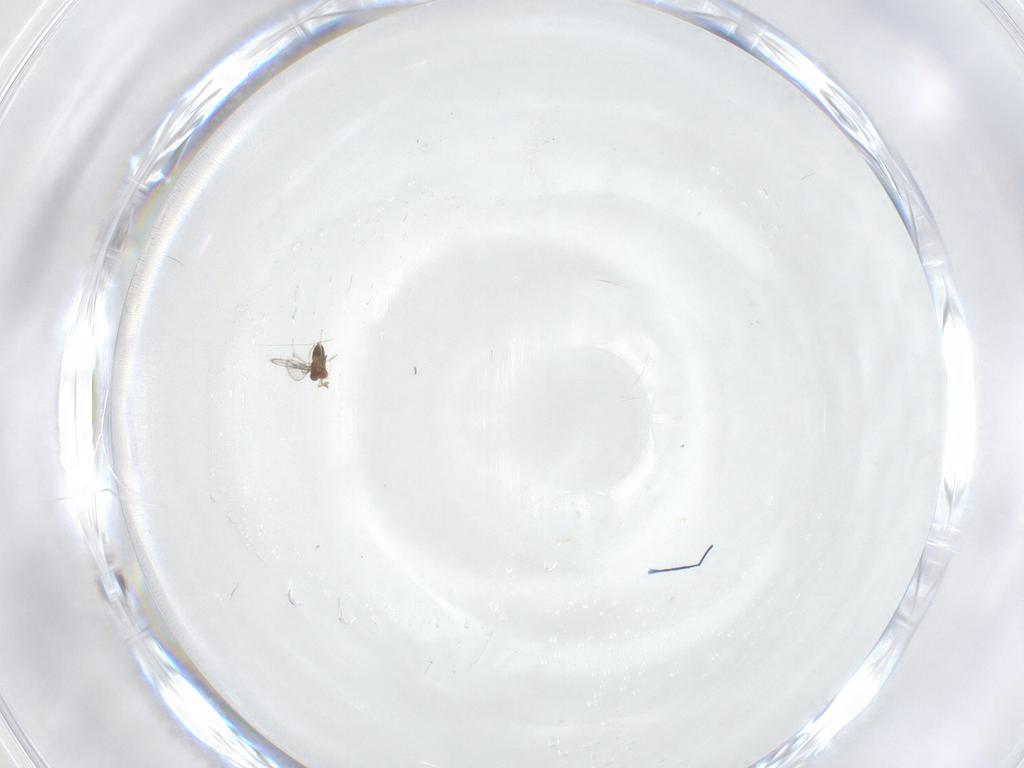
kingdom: Animalia
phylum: Arthropoda
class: Insecta
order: Hymenoptera
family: Trichogrammatidae
